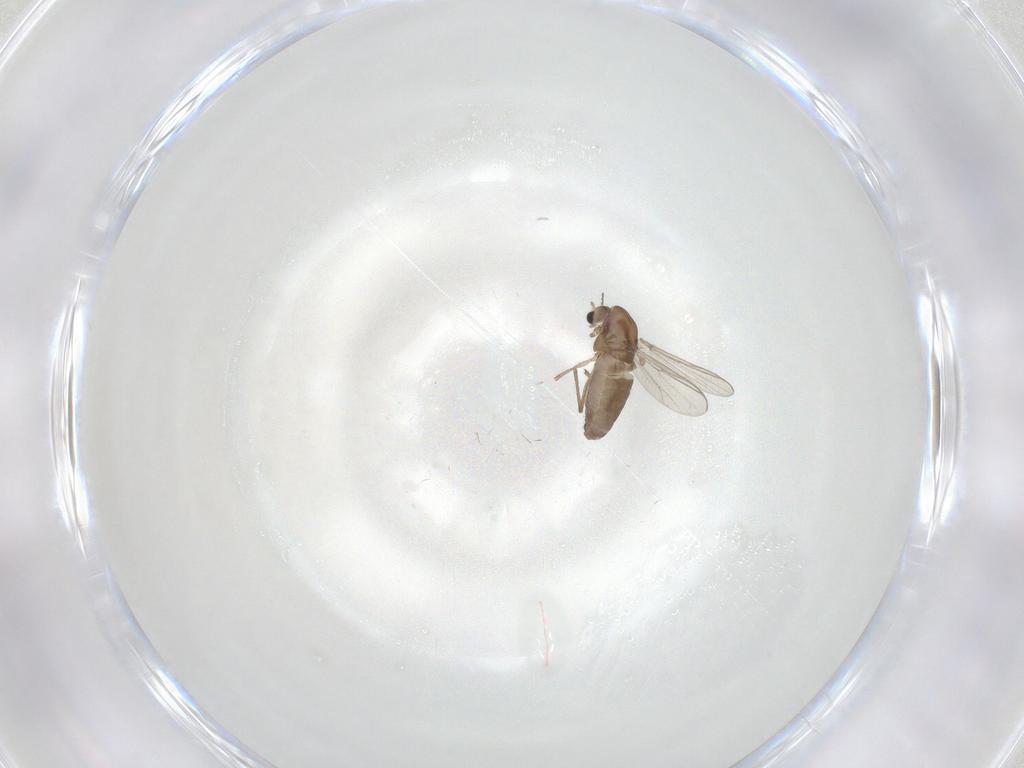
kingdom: Animalia
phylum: Arthropoda
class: Insecta
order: Diptera
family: Chironomidae
